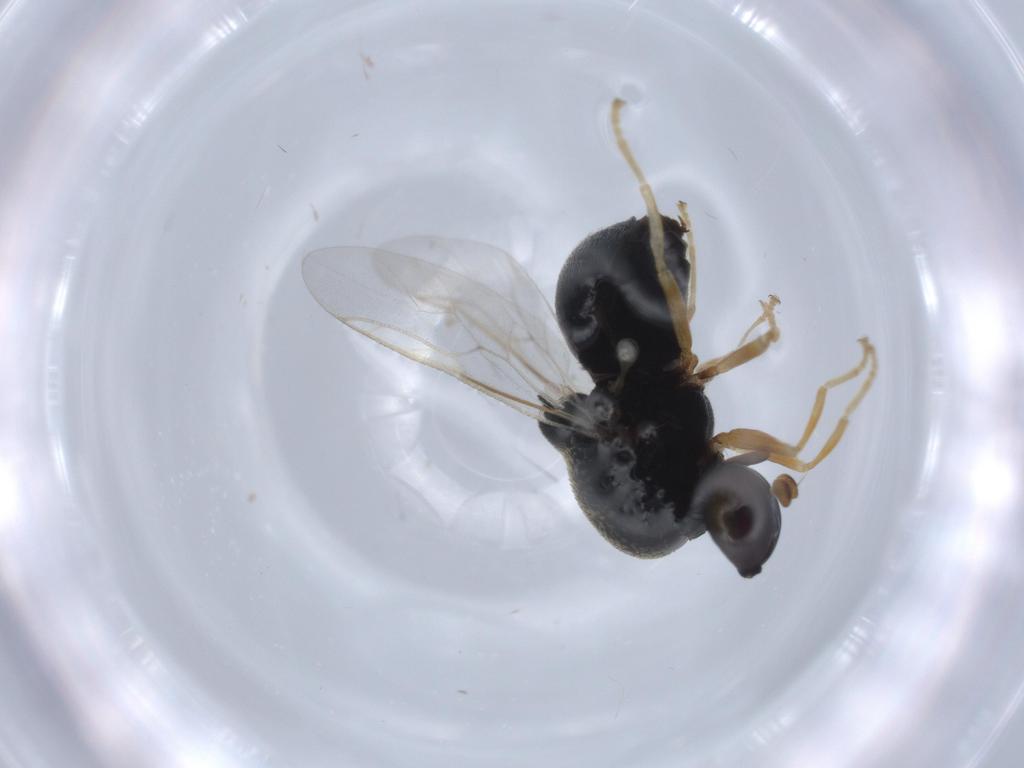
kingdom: Animalia
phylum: Arthropoda
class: Insecta
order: Diptera
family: Stratiomyidae
